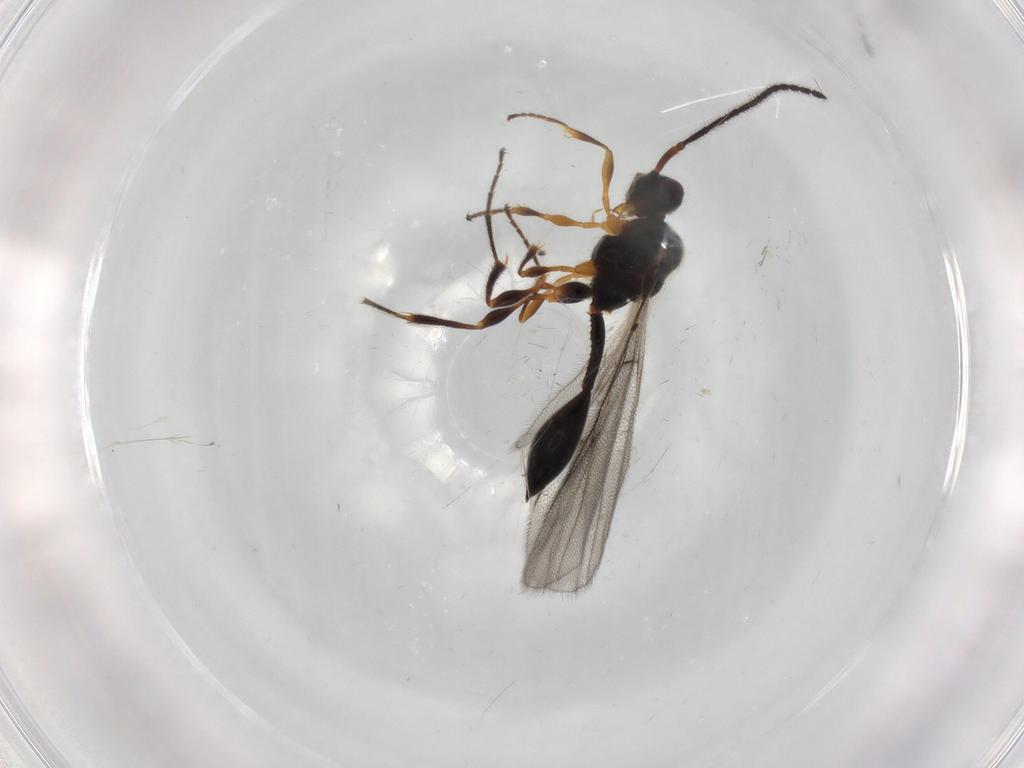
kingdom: Animalia
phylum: Arthropoda
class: Insecta
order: Hymenoptera
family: Diapriidae
